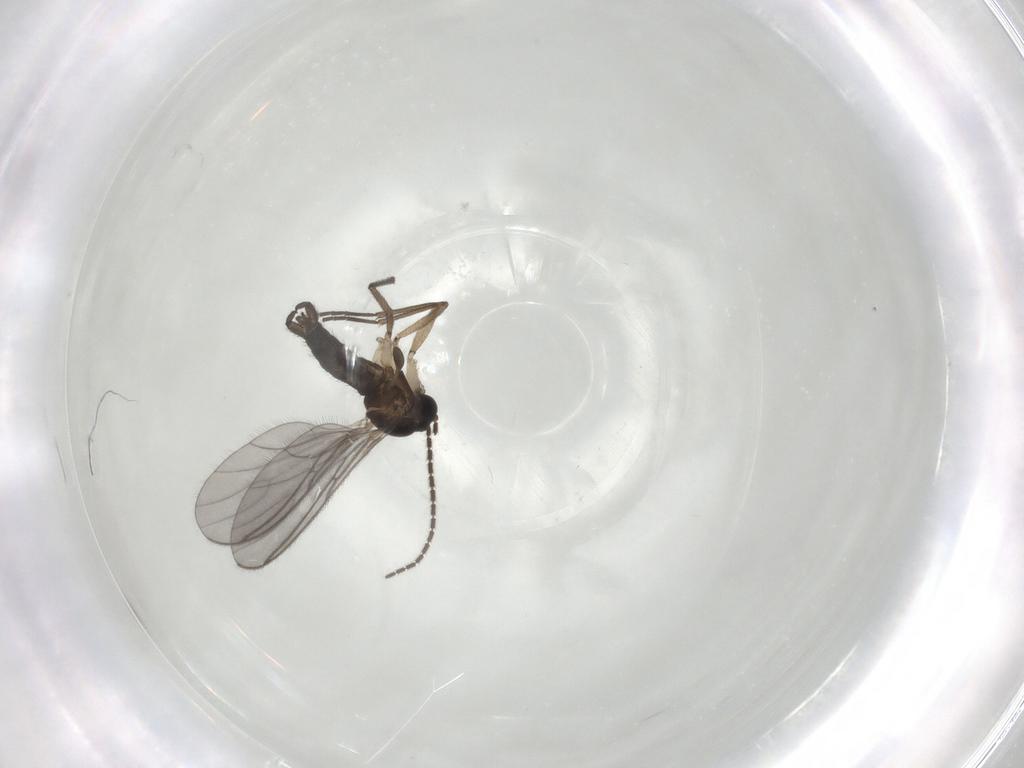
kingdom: Animalia
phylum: Arthropoda
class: Insecta
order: Diptera
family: Sciaridae
